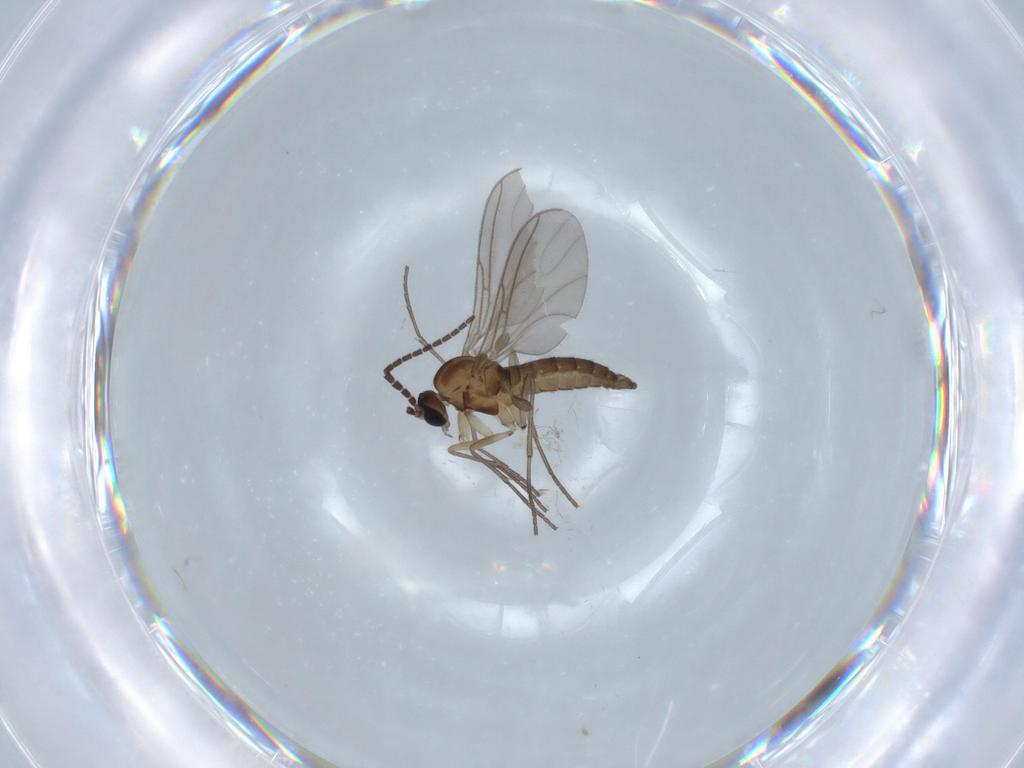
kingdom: Animalia
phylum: Arthropoda
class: Insecta
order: Diptera
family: Sciaridae
